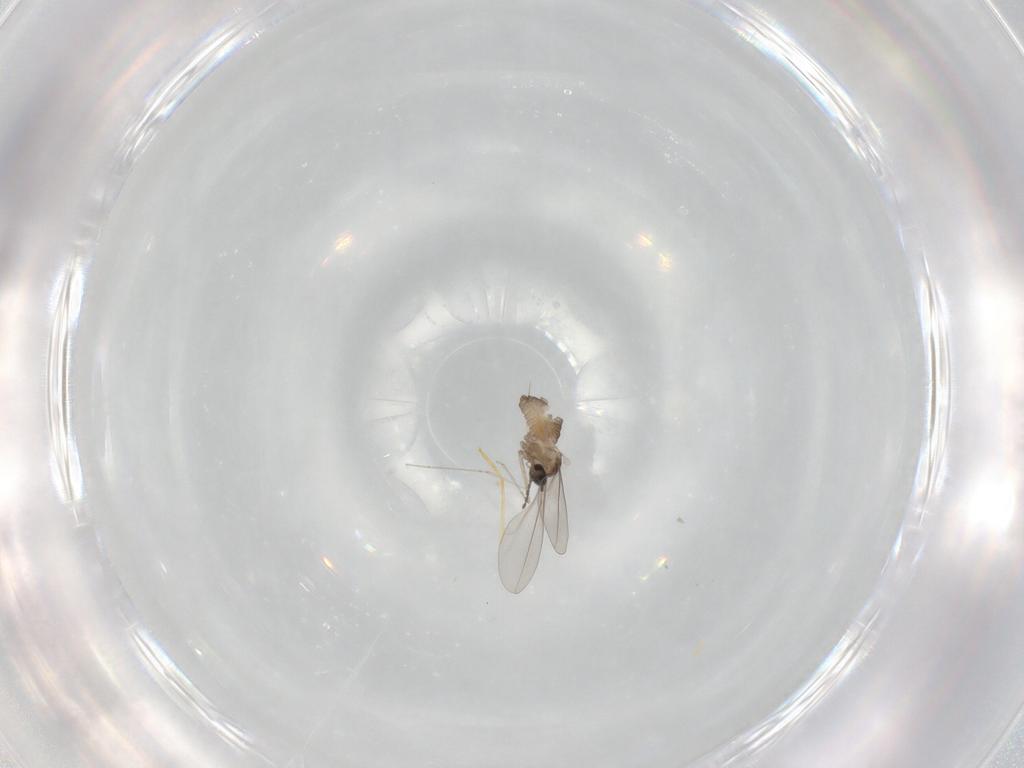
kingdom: Animalia
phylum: Arthropoda
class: Insecta
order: Diptera
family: Cecidomyiidae
